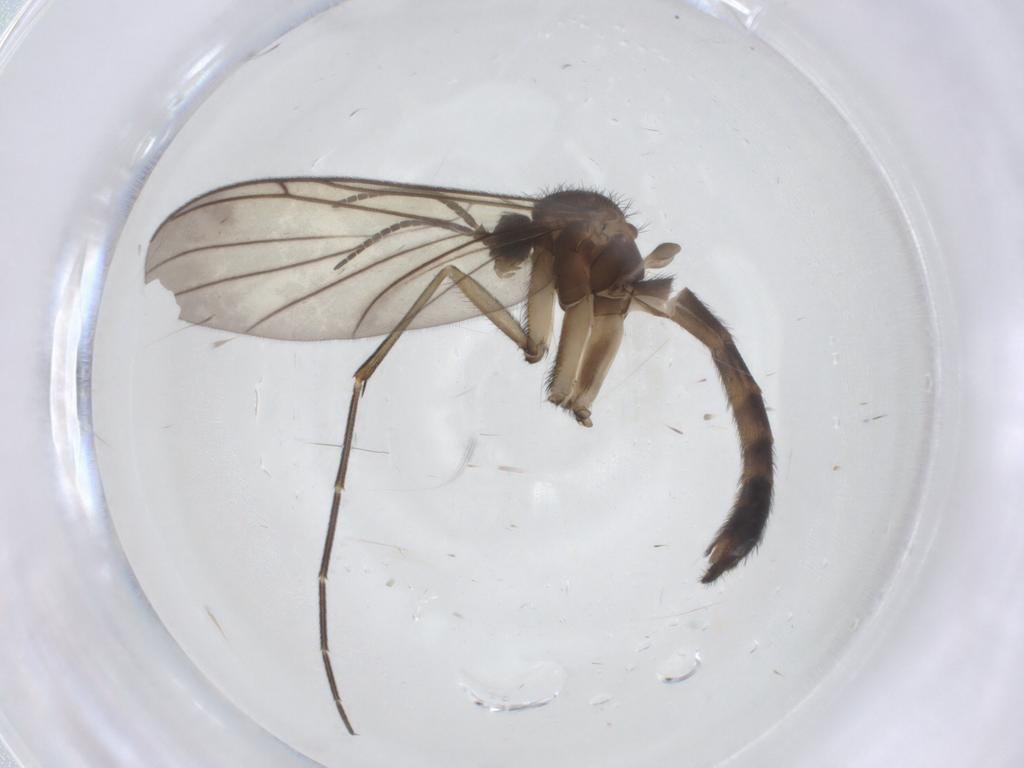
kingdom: Animalia
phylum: Arthropoda
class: Insecta
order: Diptera
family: Keroplatidae
